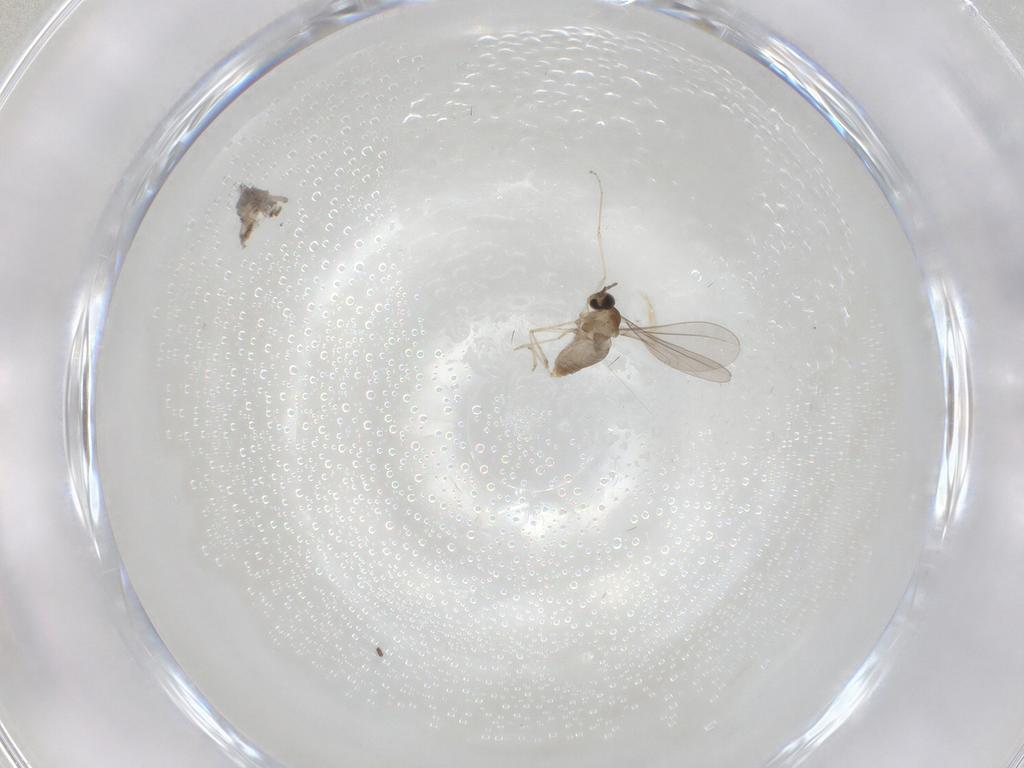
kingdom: Animalia
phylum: Arthropoda
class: Insecta
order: Diptera
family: Sciaridae
